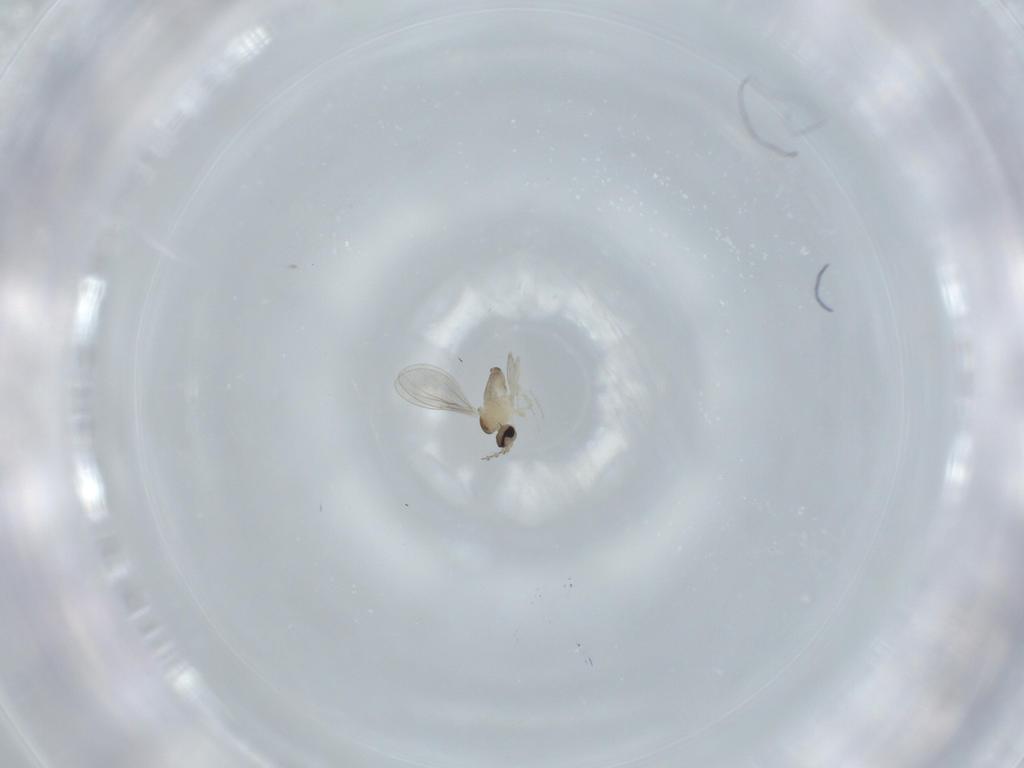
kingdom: Animalia
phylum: Arthropoda
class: Insecta
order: Diptera
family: Cecidomyiidae
